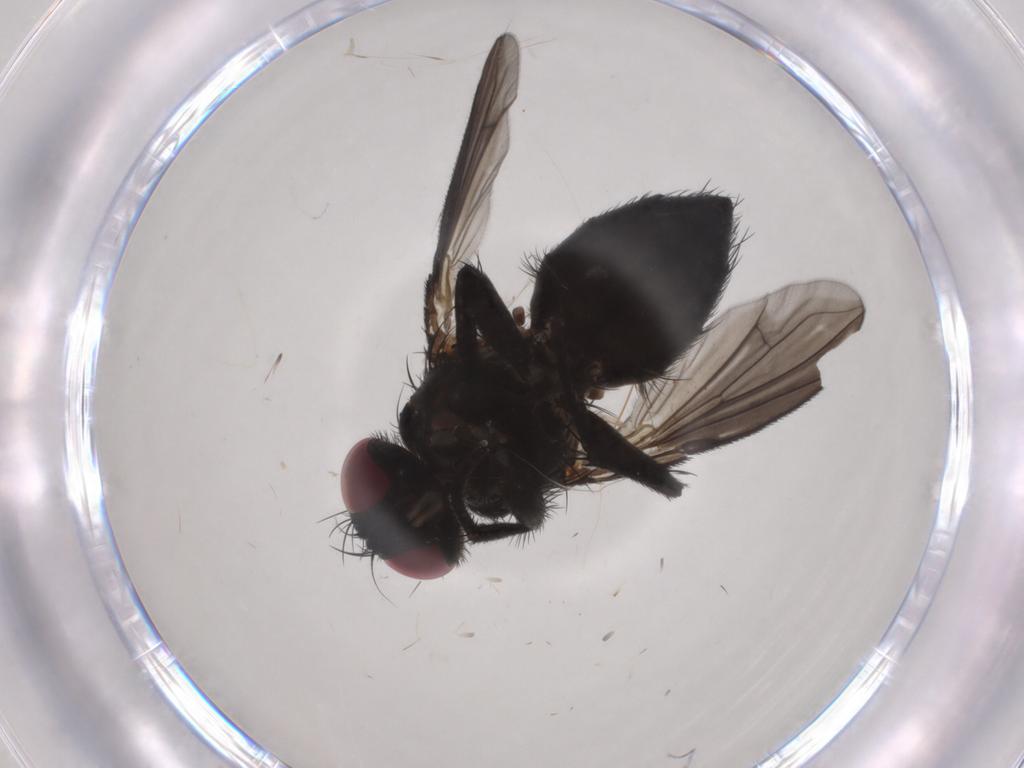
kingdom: Animalia
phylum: Arthropoda
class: Insecta
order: Diptera
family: Calliphoridae
